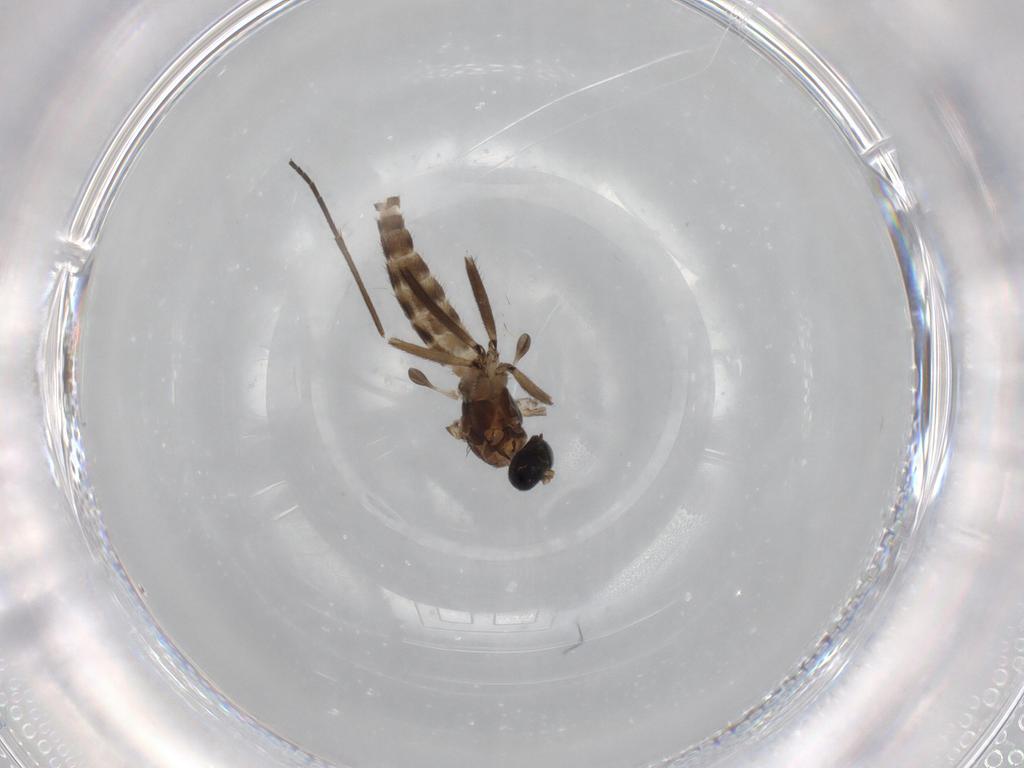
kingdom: Animalia
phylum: Arthropoda
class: Insecta
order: Diptera
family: Sciaridae
